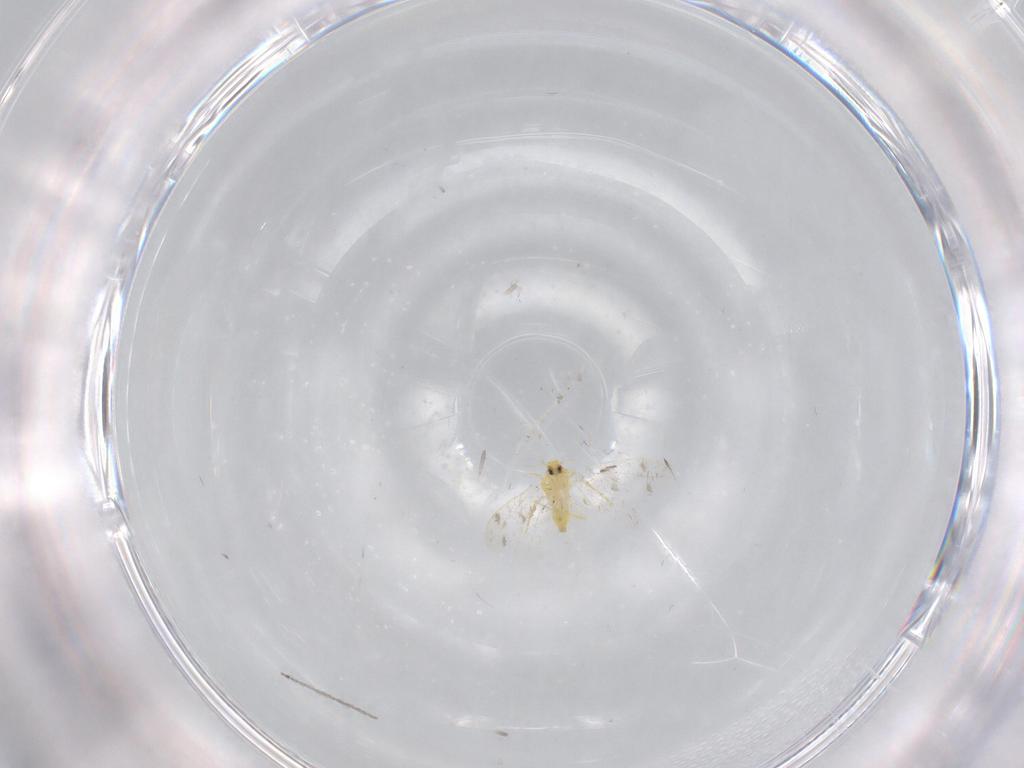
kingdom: Animalia
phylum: Arthropoda
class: Insecta
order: Hemiptera
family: Aleyrodidae
